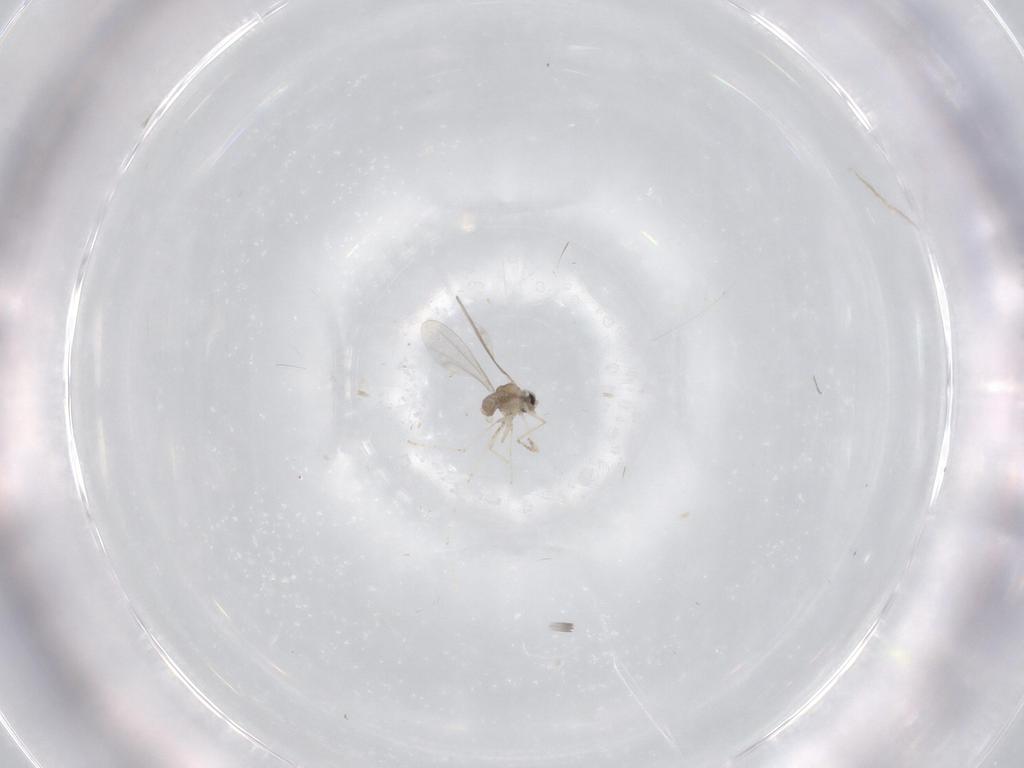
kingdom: Animalia
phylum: Arthropoda
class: Insecta
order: Diptera
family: Cecidomyiidae
